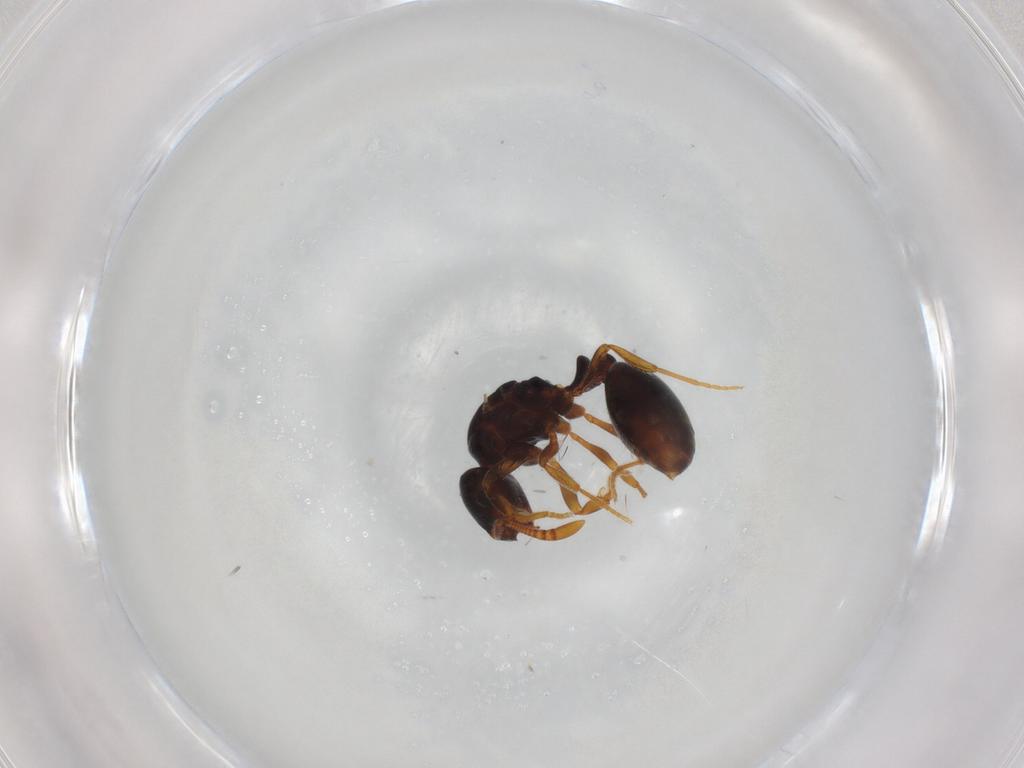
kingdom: Animalia
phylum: Arthropoda
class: Insecta
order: Hymenoptera
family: Formicidae
